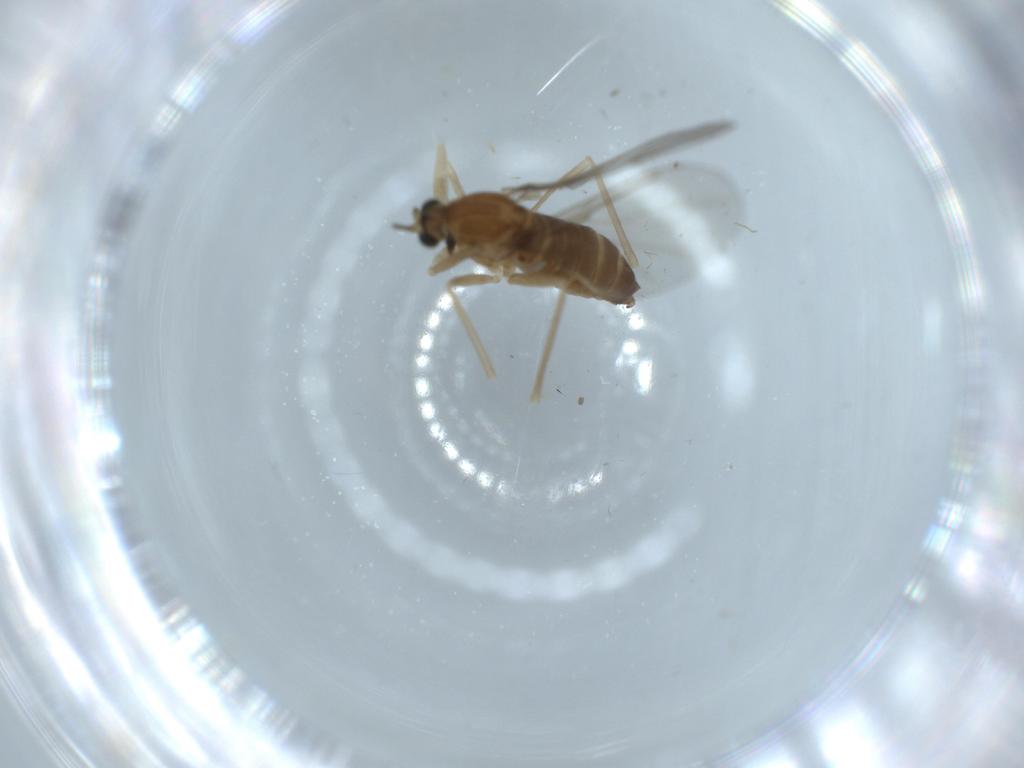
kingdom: Animalia
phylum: Arthropoda
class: Insecta
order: Diptera
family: Cecidomyiidae
